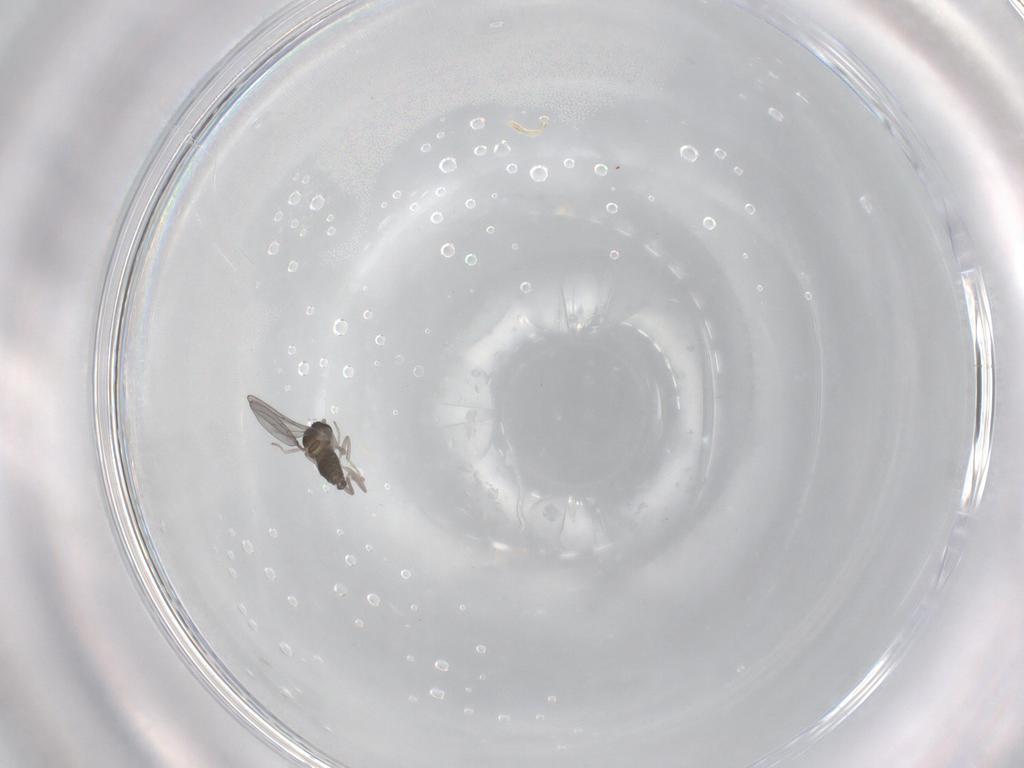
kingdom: Animalia
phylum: Arthropoda
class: Insecta
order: Diptera
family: Cecidomyiidae
